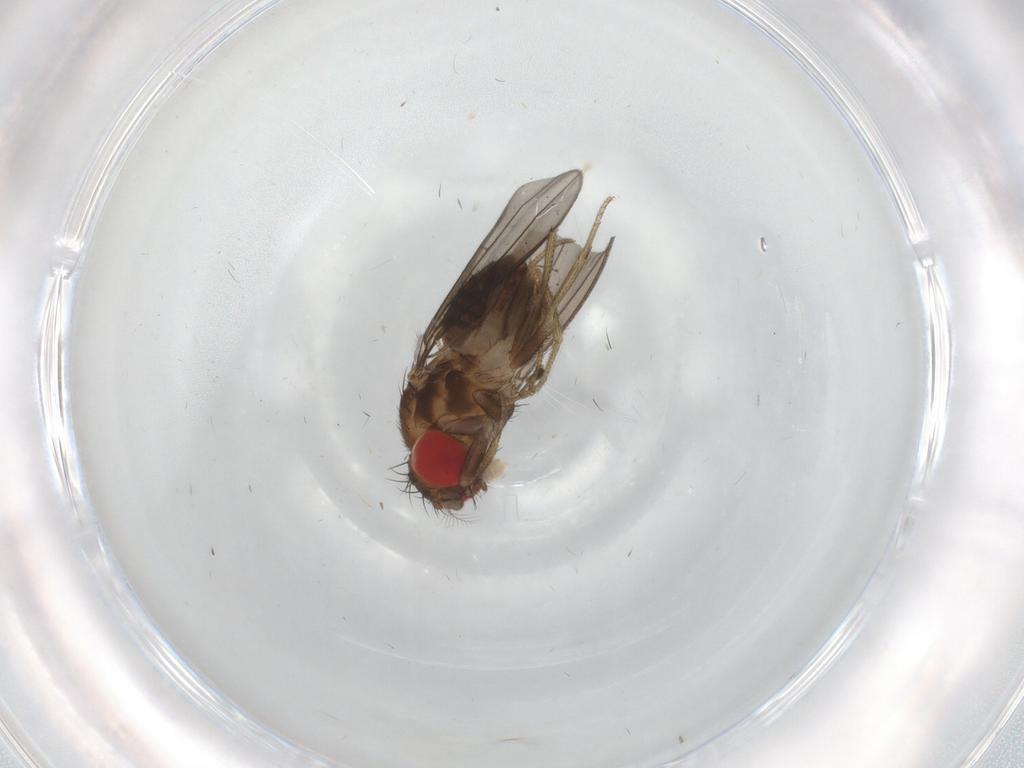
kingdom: Animalia
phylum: Arthropoda
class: Insecta
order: Diptera
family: Drosophilidae
